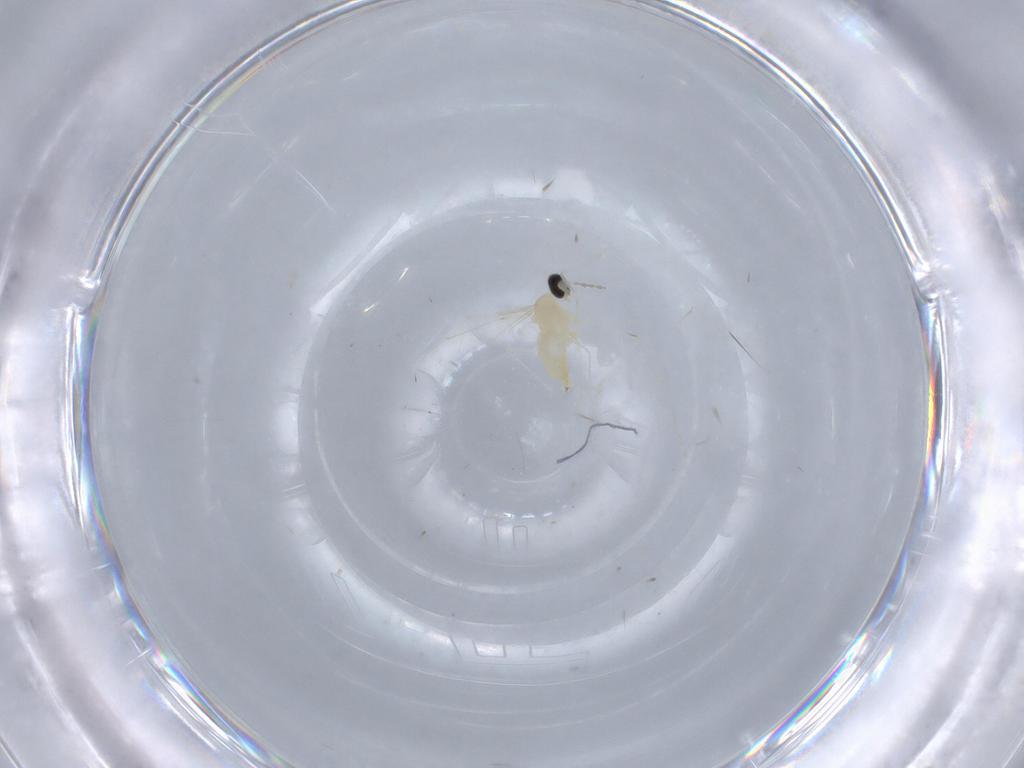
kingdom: Animalia
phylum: Arthropoda
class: Insecta
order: Diptera
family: Cecidomyiidae
